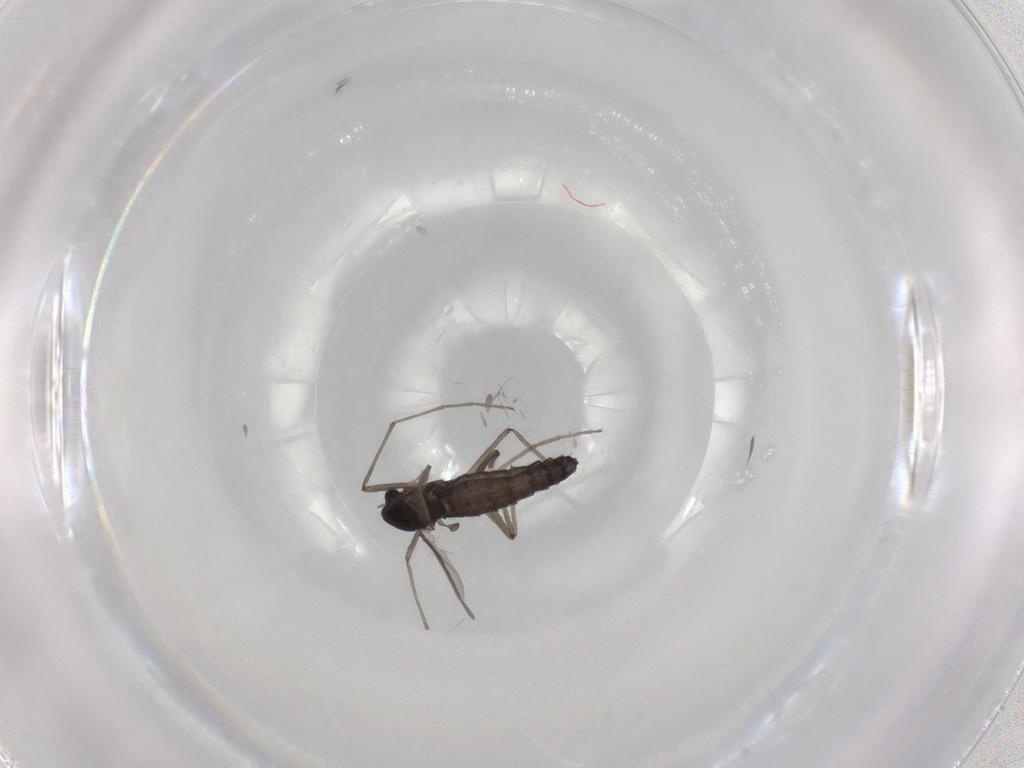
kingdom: Animalia
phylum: Arthropoda
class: Insecta
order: Diptera
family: Chironomidae
